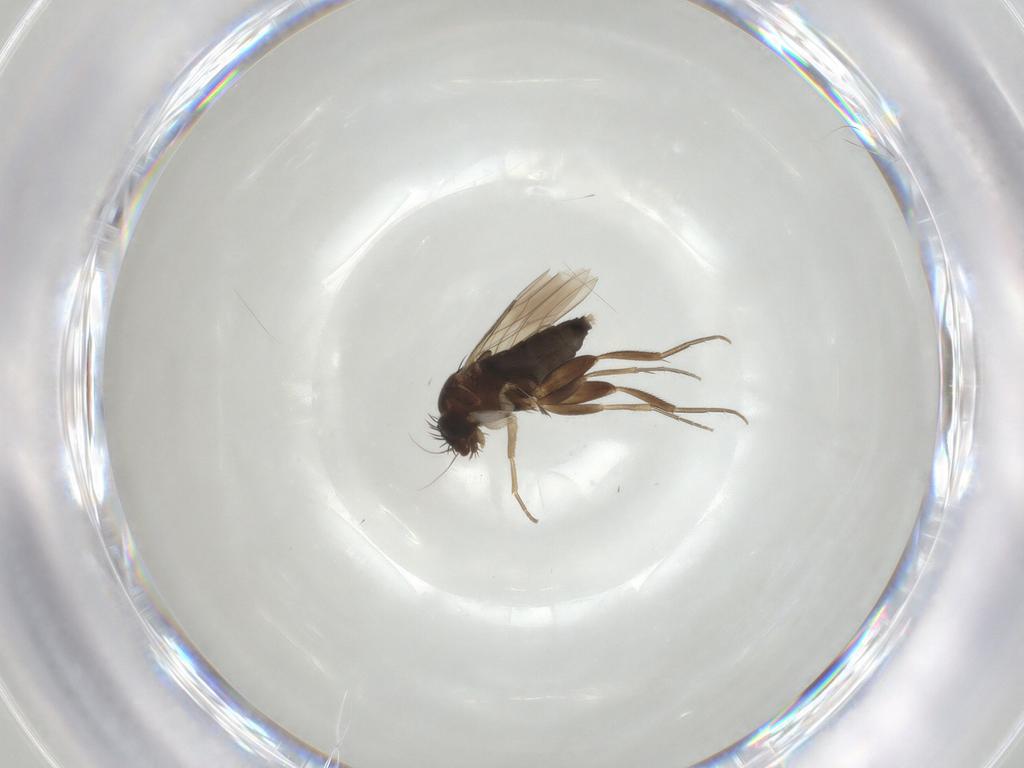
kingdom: Animalia
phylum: Arthropoda
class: Insecta
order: Diptera
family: Phoridae
